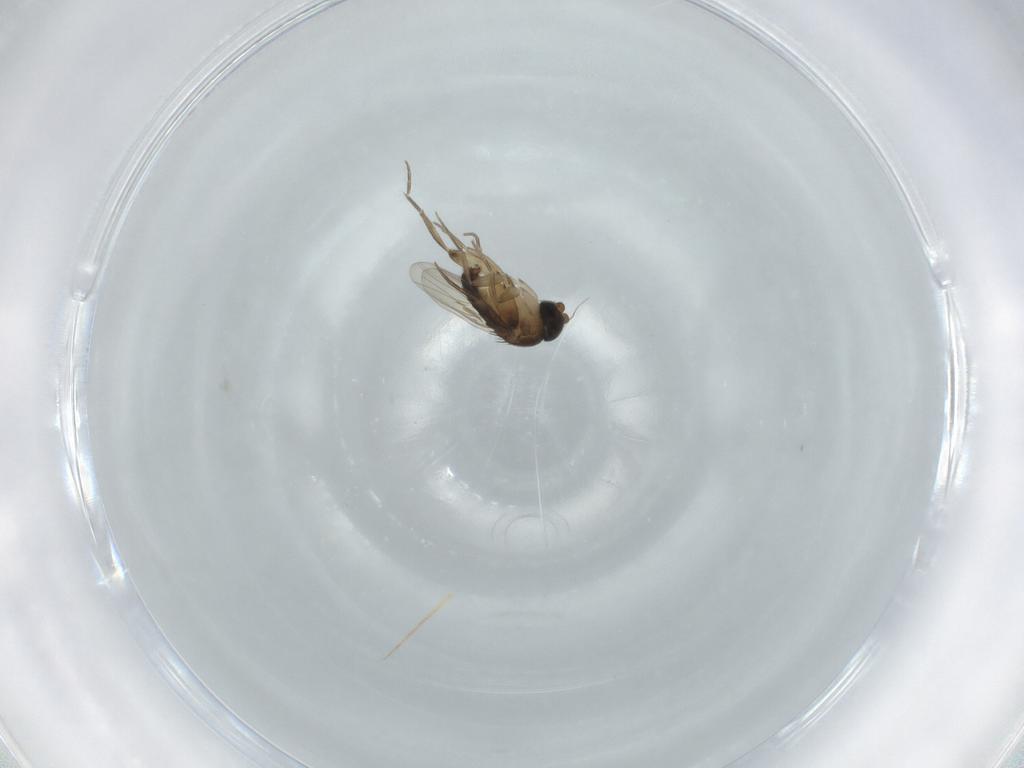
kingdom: Animalia
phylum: Arthropoda
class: Insecta
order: Diptera
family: Phoridae
